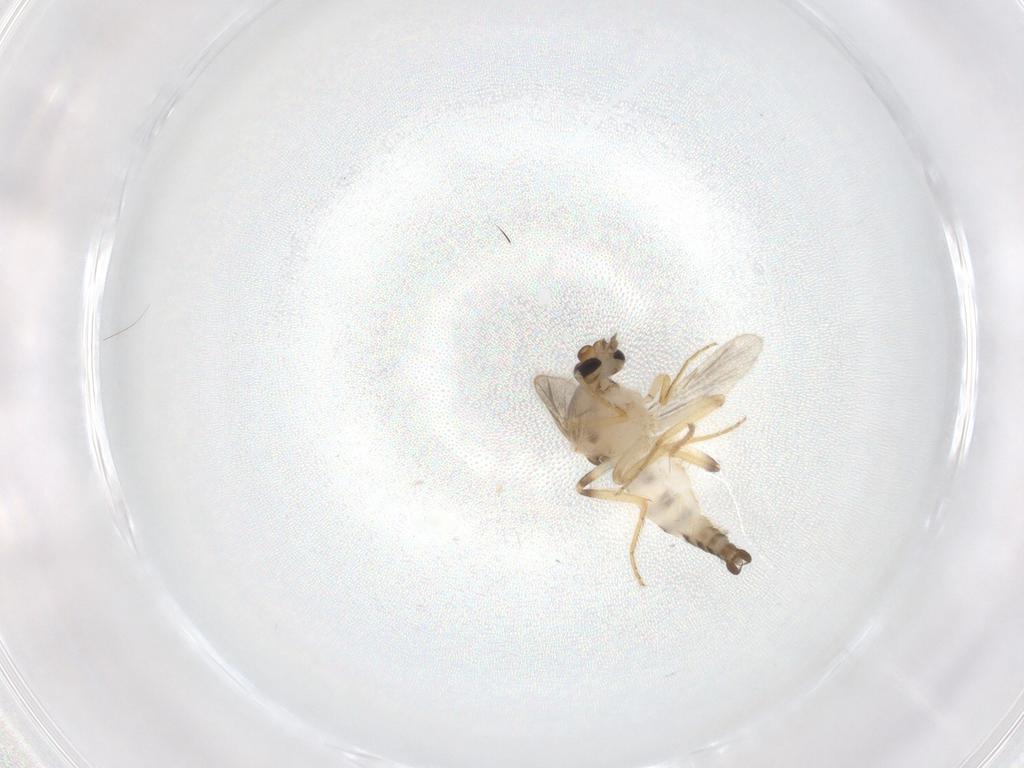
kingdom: Animalia
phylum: Arthropoda
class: Insecta
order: Diptera
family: Ceratopogonidae
